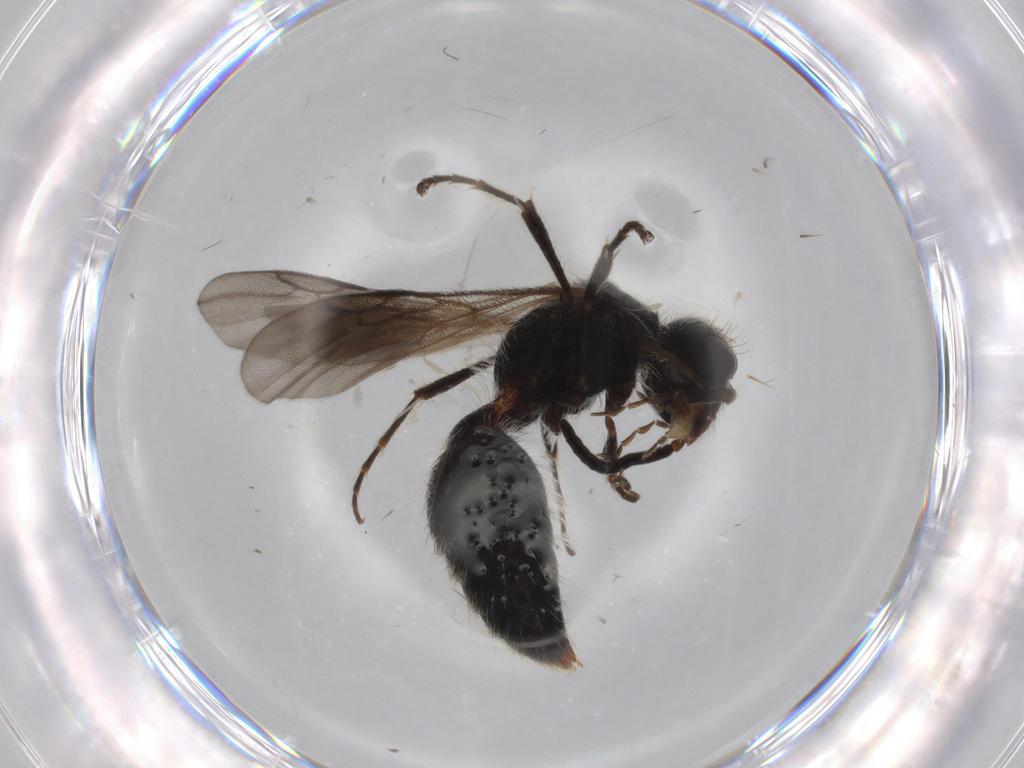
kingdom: Animalia
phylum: Arthropoda
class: Insecta
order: Hymenoptera
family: Mutillidae
